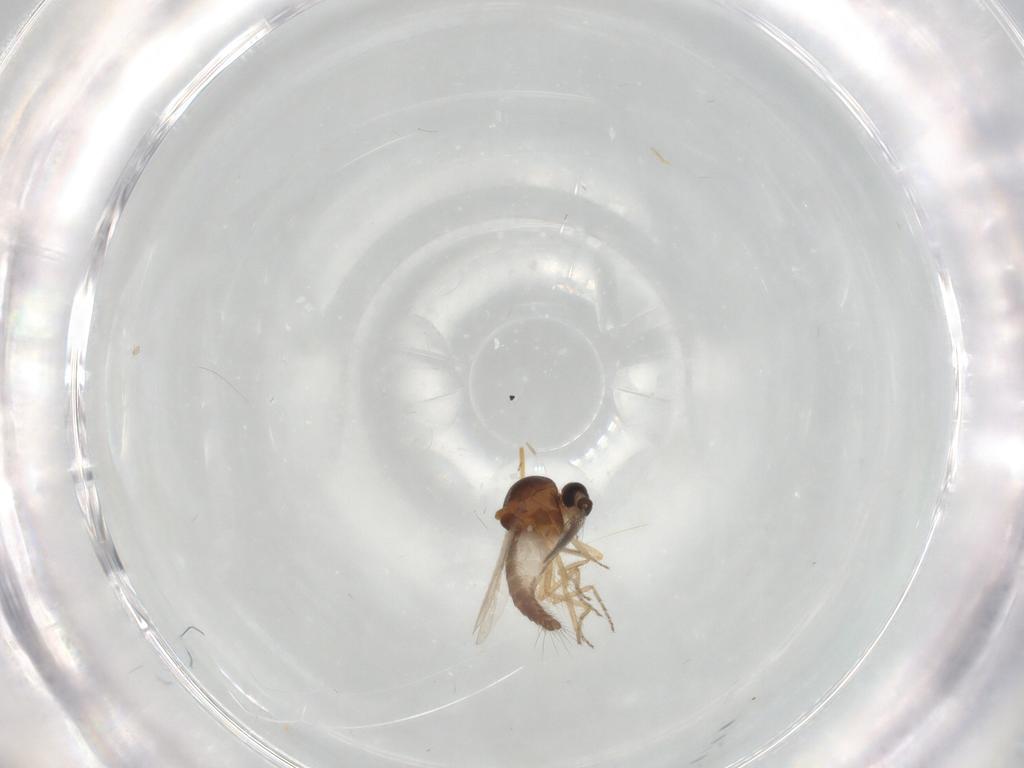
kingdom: Animalia
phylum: Arthropoda
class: Insecta
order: Diptera
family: Ceratopogonidae
